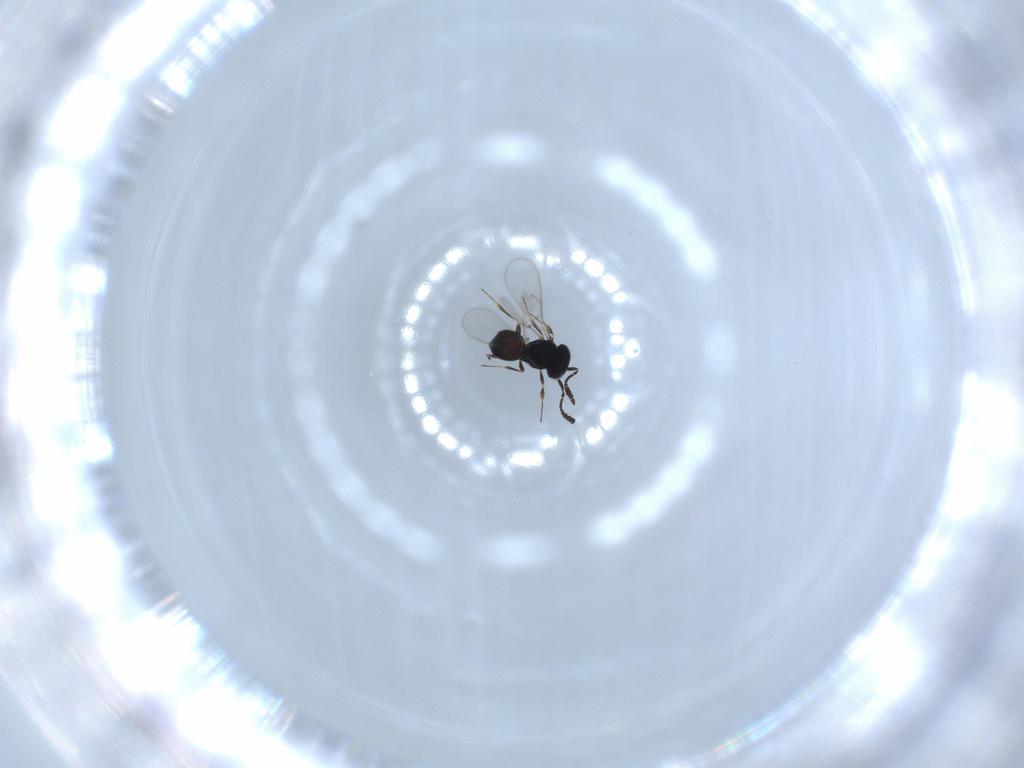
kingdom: Animalia
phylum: Arthropoda
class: Insecta
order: Hymenoptera
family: Scelionidae
